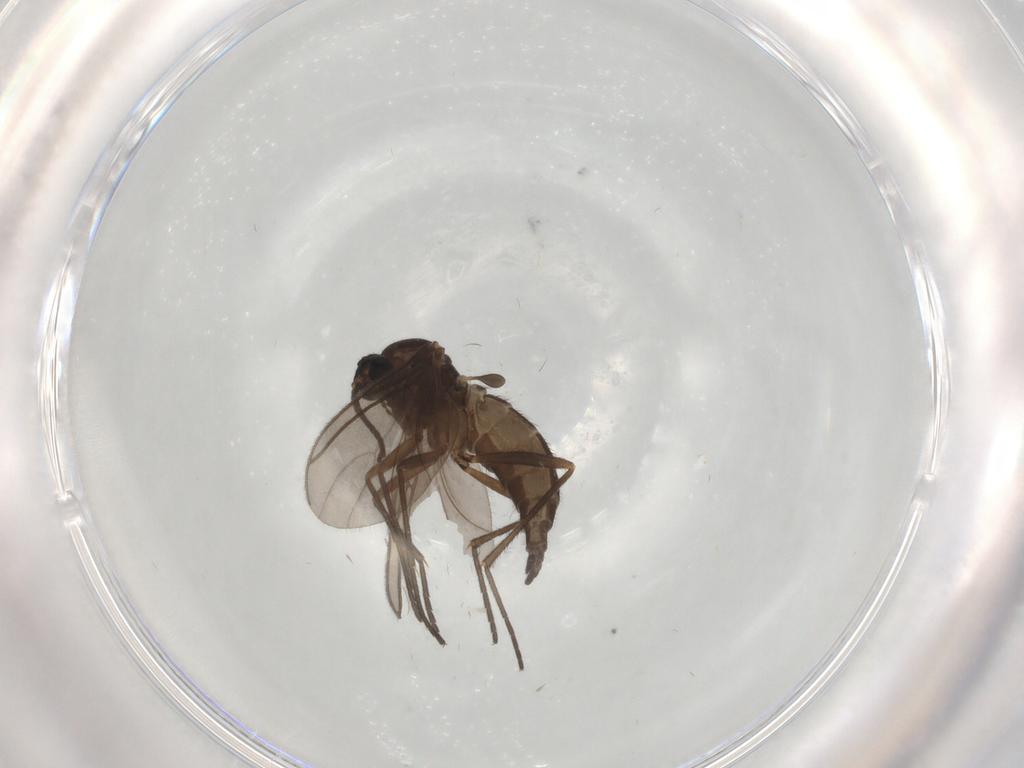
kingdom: Animalia
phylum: Arthropoda
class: Insecta
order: Diptera
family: Sciaridae
